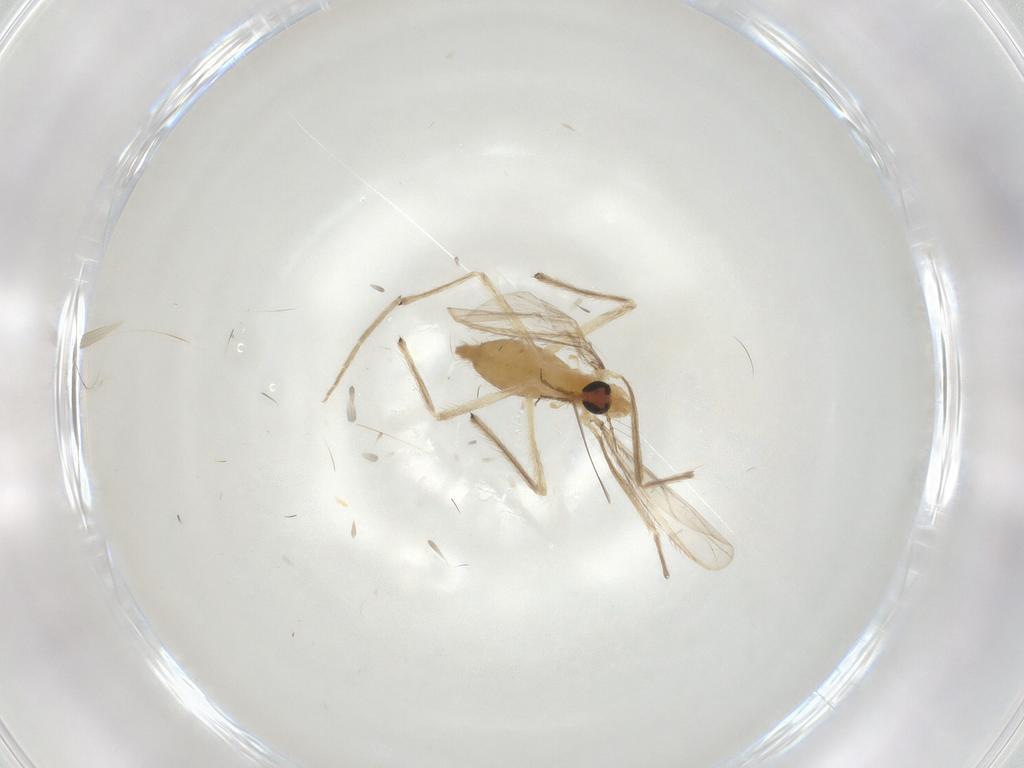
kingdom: Animalia
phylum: Arthropoda
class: Insecta
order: Diptera
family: Chironomidae
